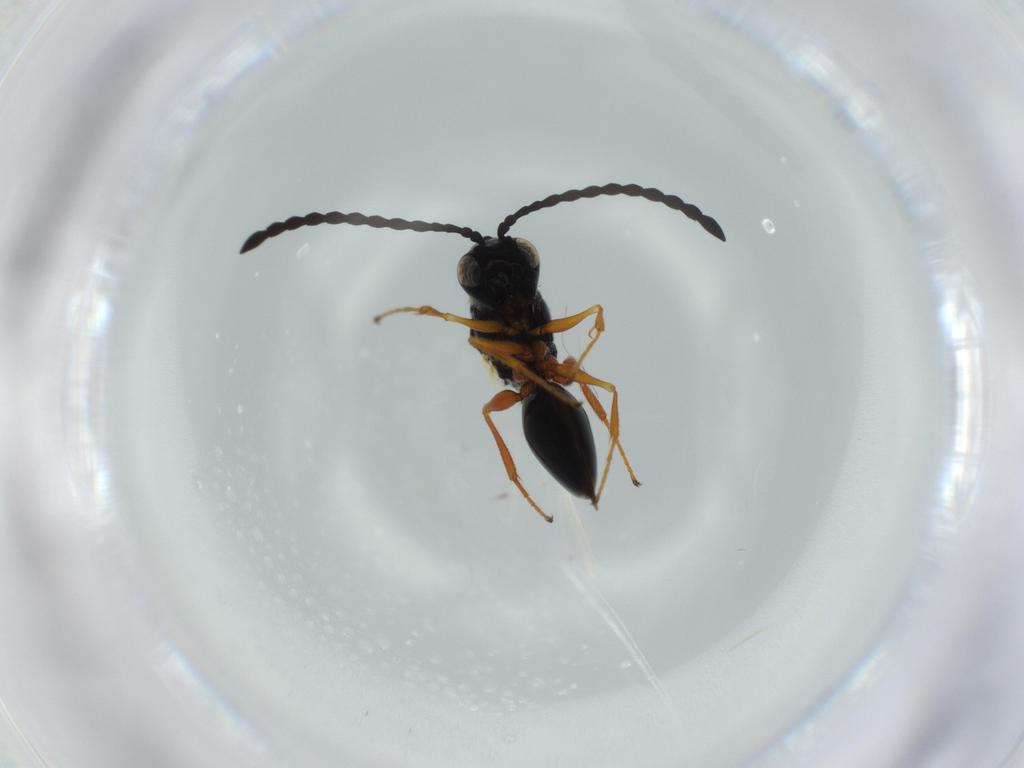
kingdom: Animalia
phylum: Arthropoda
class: Insecta
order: Hymenoptera
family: Figitidae
